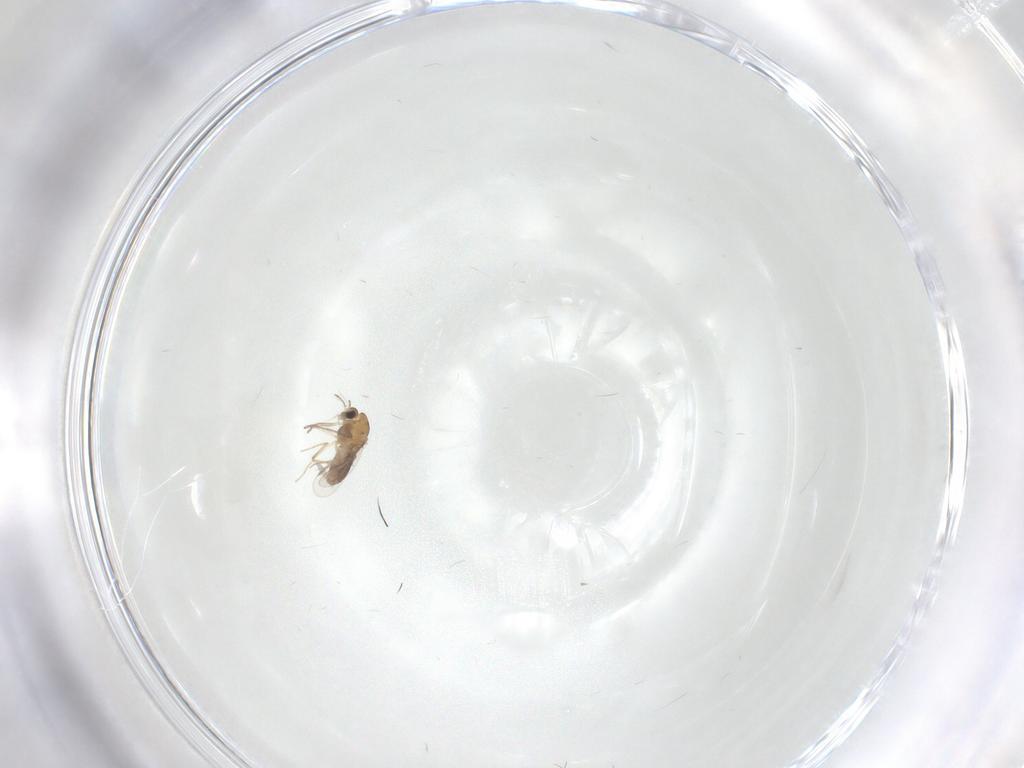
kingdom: Animalia
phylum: Arthropoda
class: Insecta
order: Diptera
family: Chironomidae
